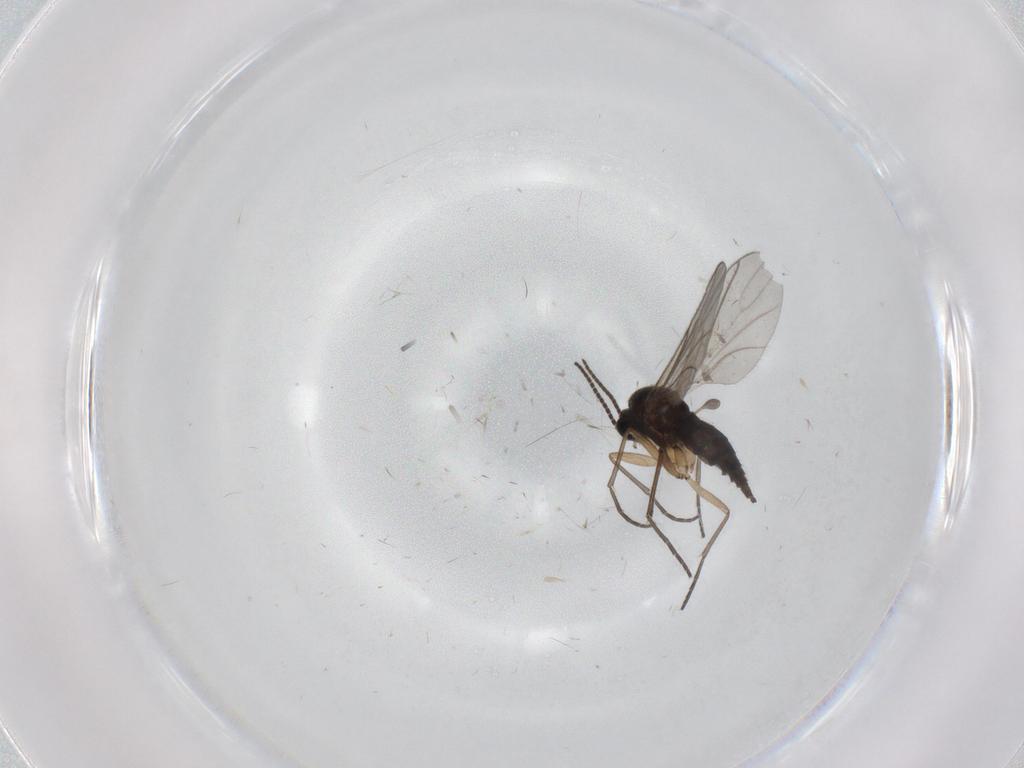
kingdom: Animalia
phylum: Arthropoda
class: Insecta
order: Diptera
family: Sciaridae
